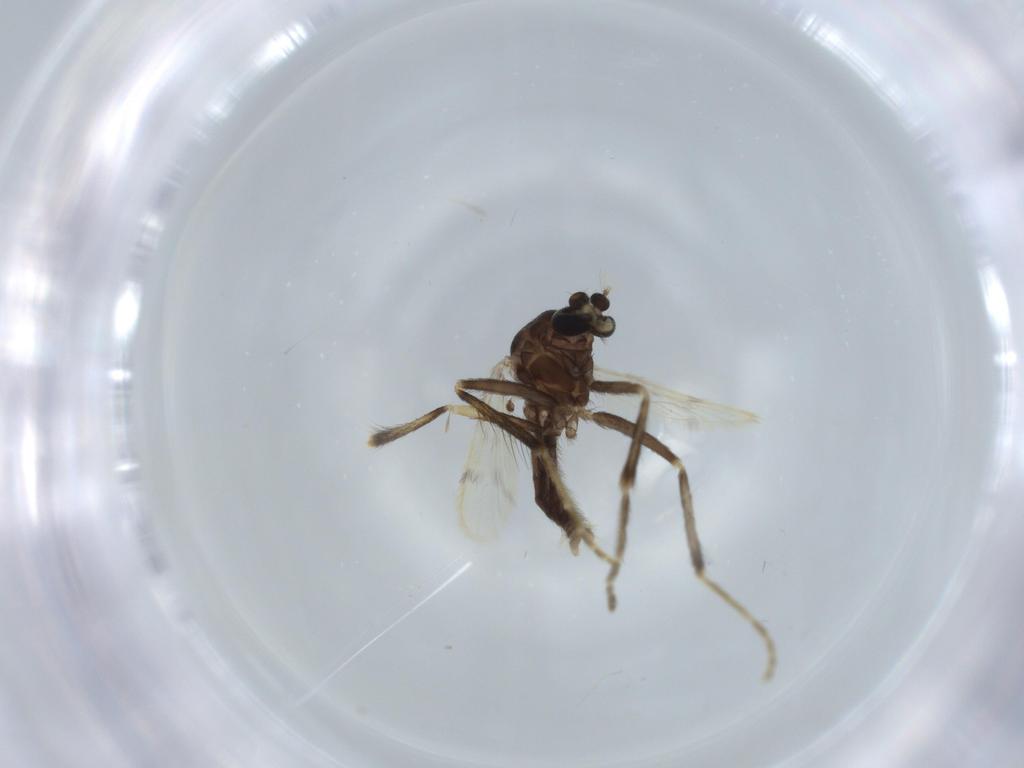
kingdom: Animalia
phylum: Arthropoda
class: Insecta
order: Diptera
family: Corethrellidae
